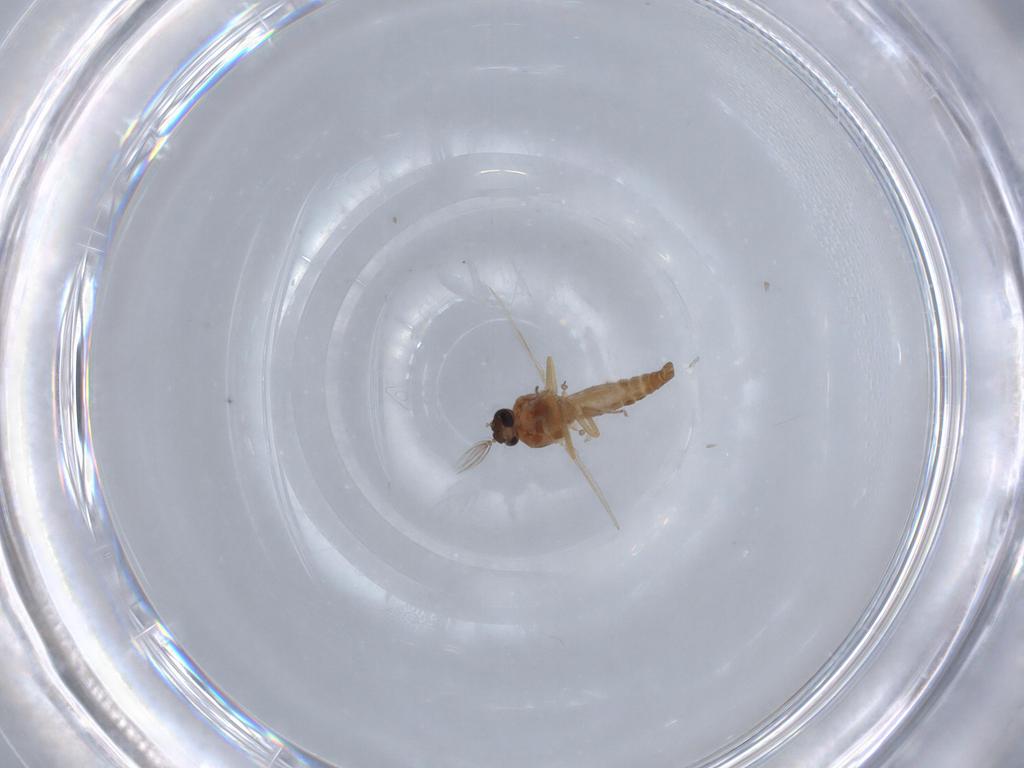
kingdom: Animalia
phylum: Arthropoda
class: Insecta
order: Diptera
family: Ceratopogonidae
